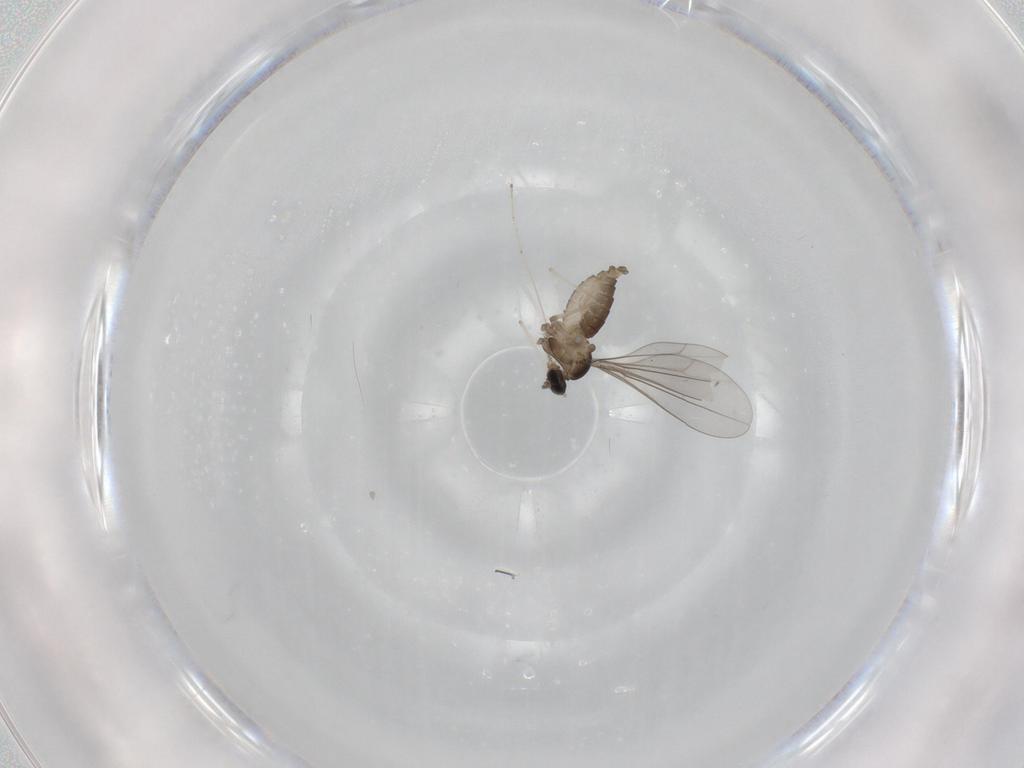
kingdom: Animalia
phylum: Arthropoda
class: Insecta
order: Diptera
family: Cecidomyiidae
